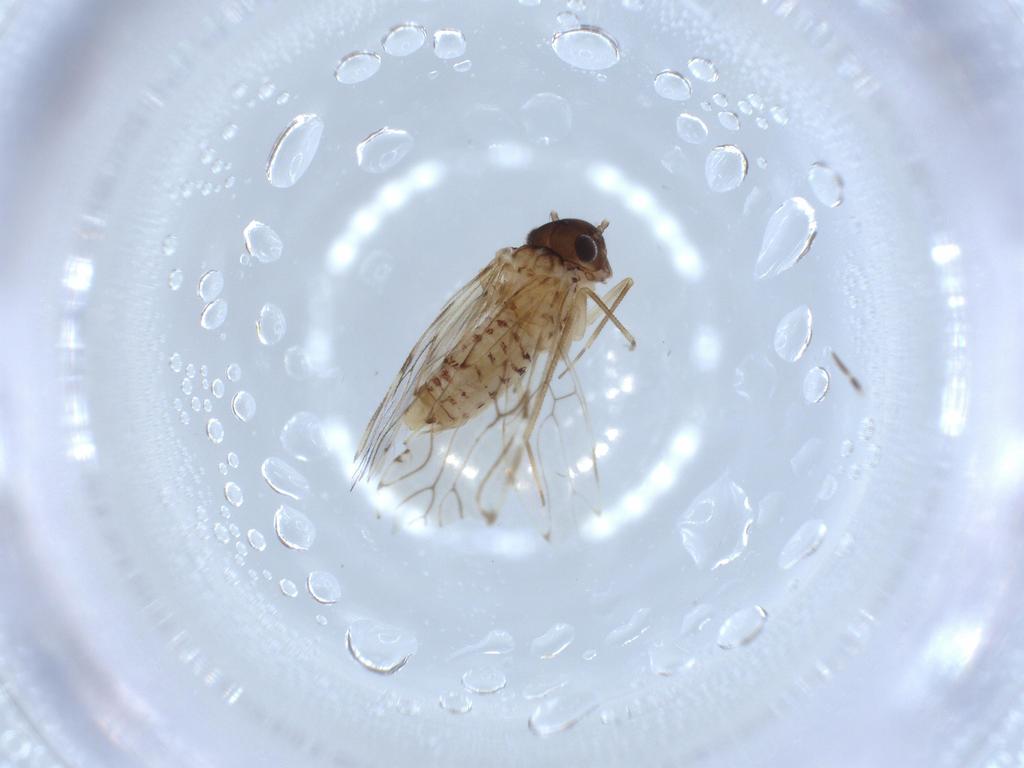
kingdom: Animalia
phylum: Arthropoda
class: Insecta
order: Psocodea
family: Epipsocidae
